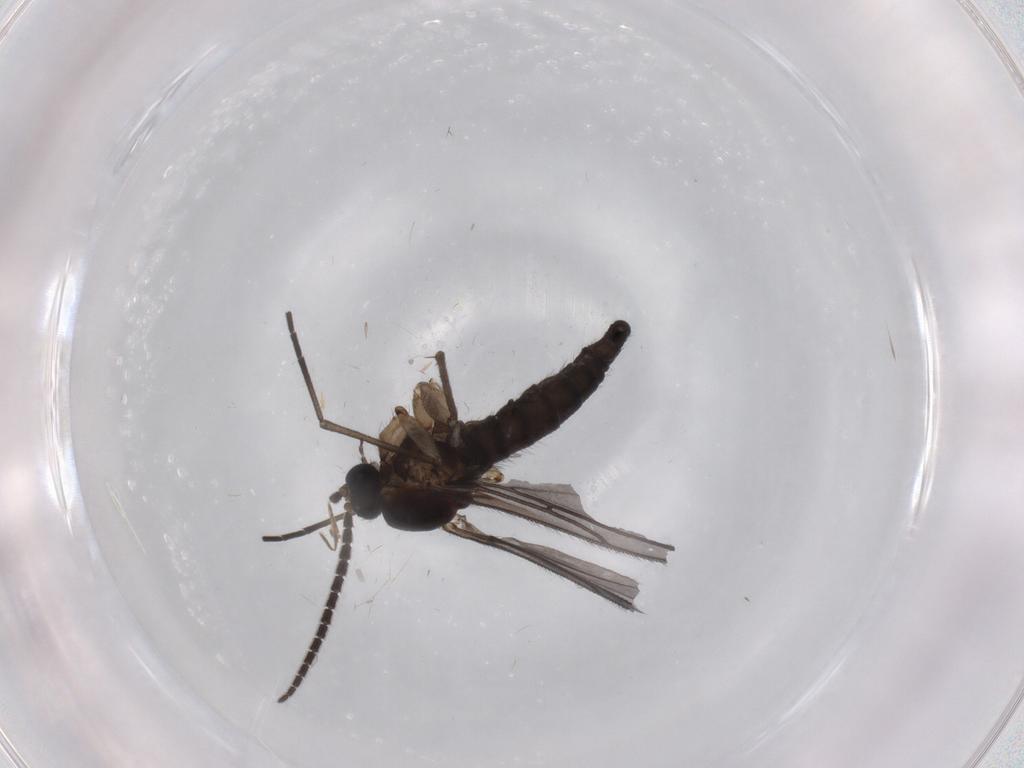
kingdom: Animalia
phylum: Arthropoda
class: Insecta
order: Diptera
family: Sciaridae
